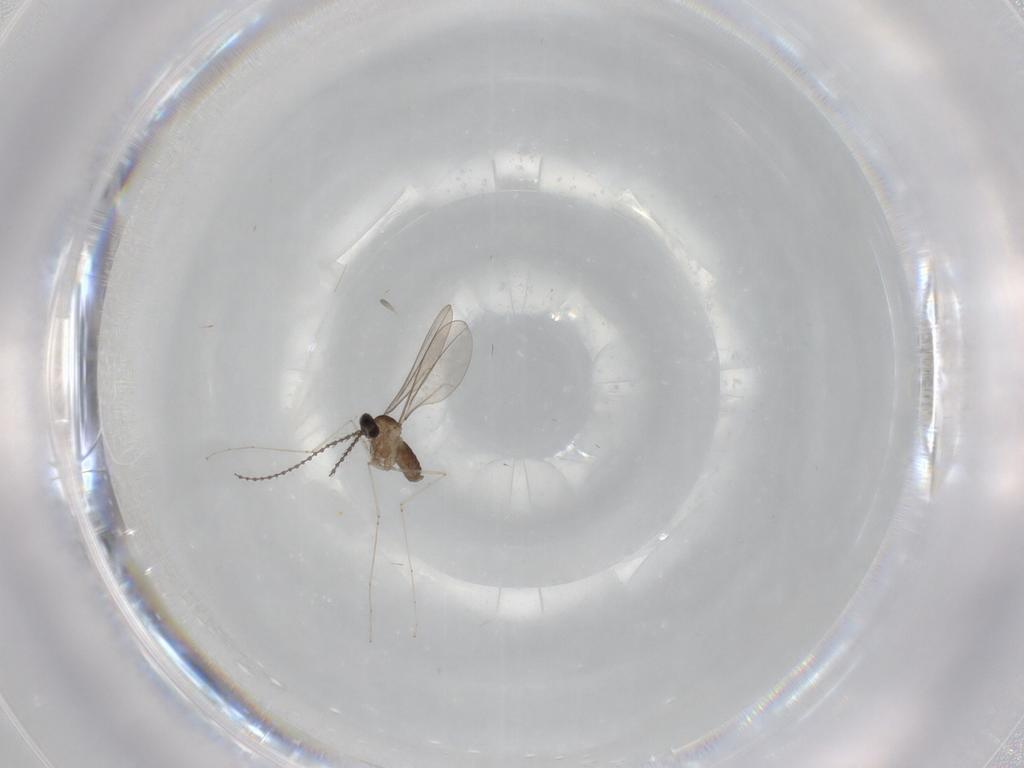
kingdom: Animalia
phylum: Arthropoda
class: Insecta
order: Diptera
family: Cecidomyiidae
